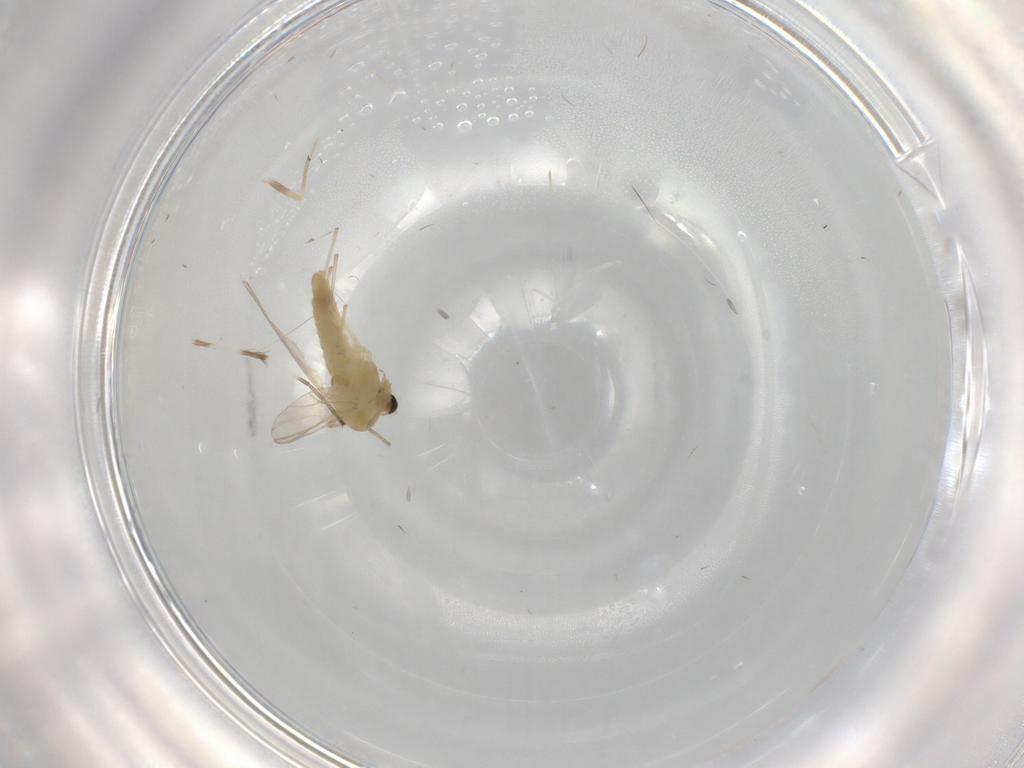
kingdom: Animalia
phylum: Arthropoda
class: Insecta
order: Diptera
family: Chironomidae
